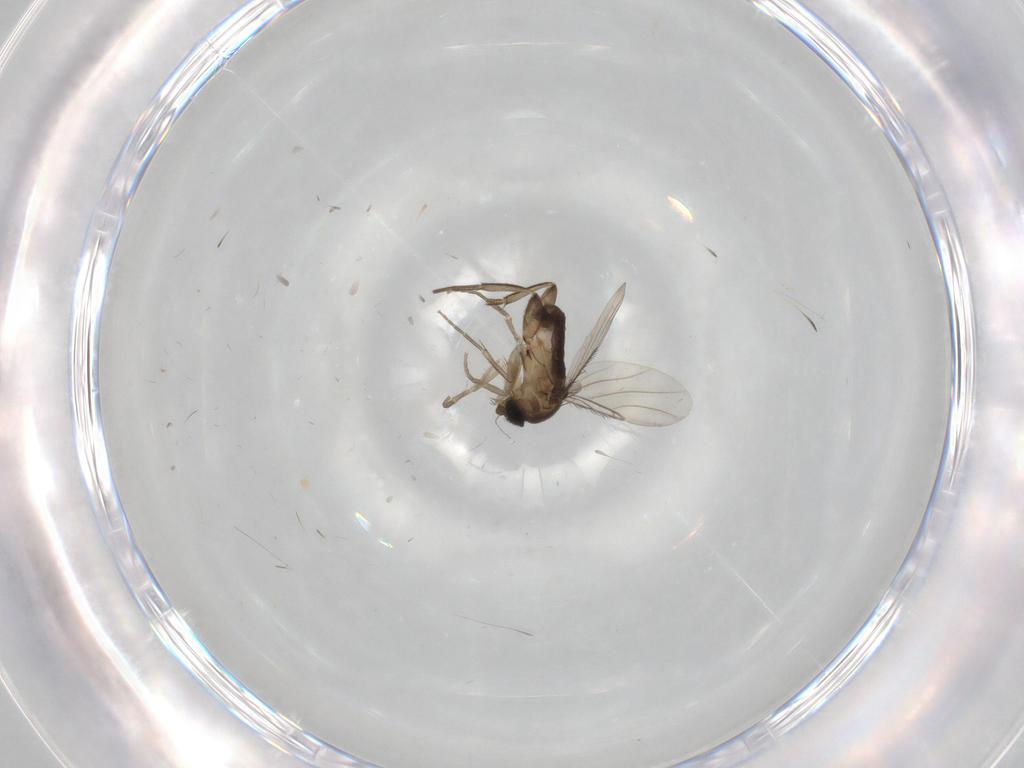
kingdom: Animalia
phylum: Arthropoda
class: Insecta
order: Diptera
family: Phoridae
